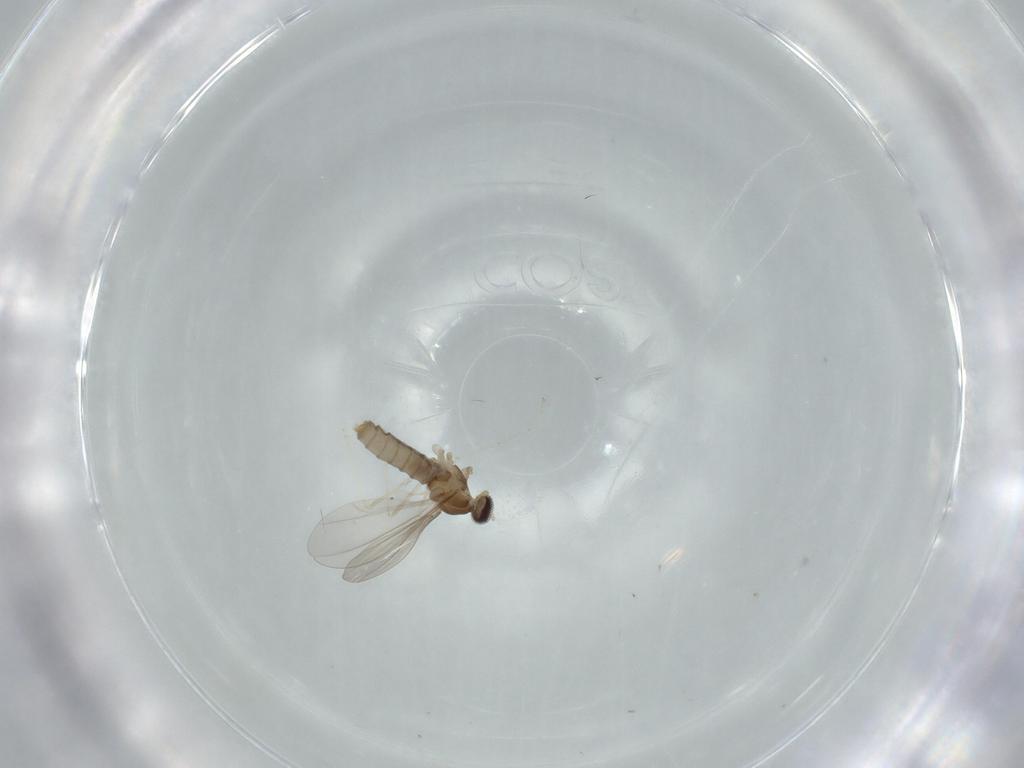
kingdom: Animalia
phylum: Arthropoda
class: Insecta
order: Diptera
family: Cecidomyiidae
